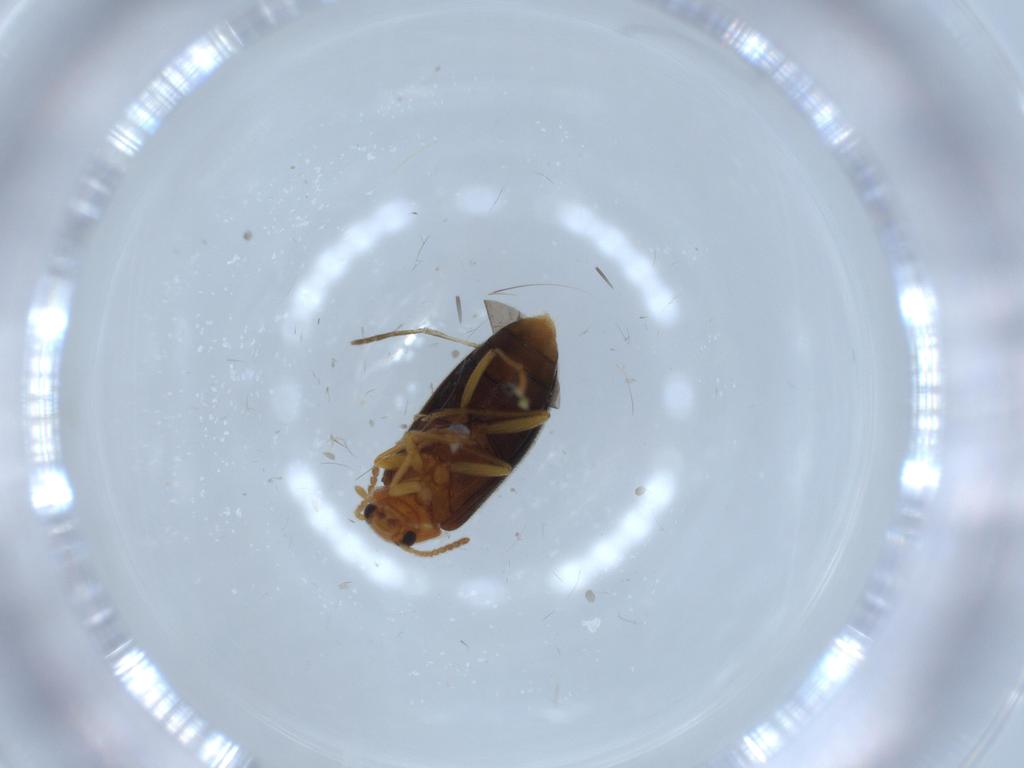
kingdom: Animalia
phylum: Arthropoda
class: Insecta
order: Coleoptera
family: Melandryidae
